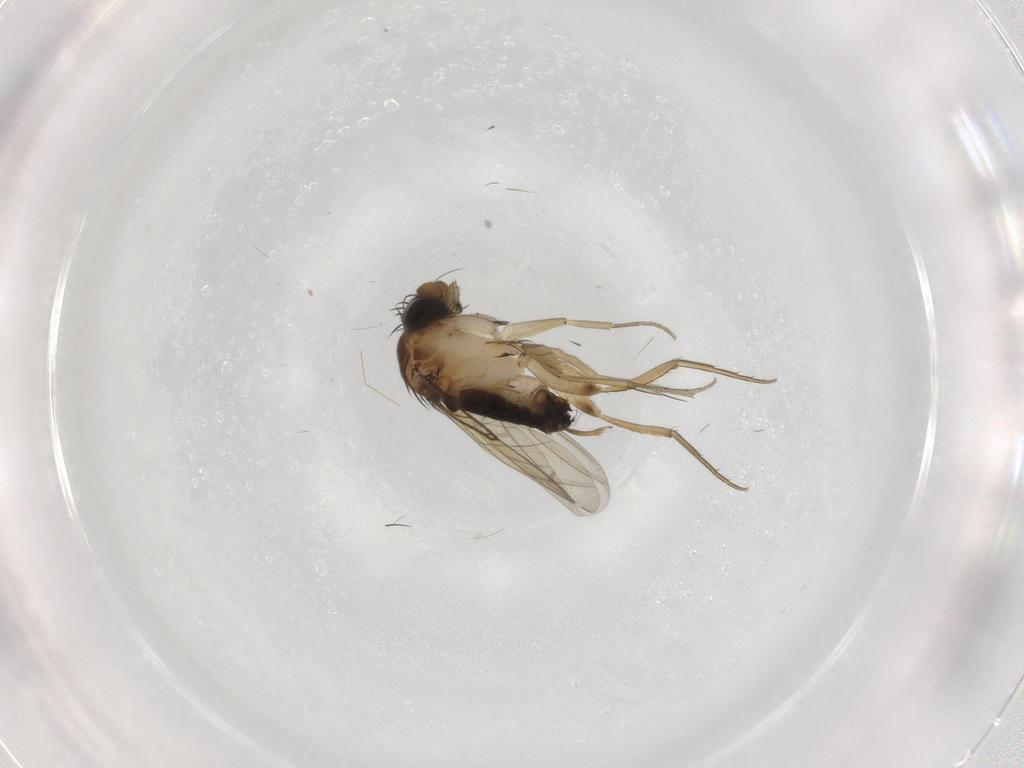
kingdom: Animalia
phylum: Arthropoda
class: Insecta
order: Diptera
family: Phoridae
